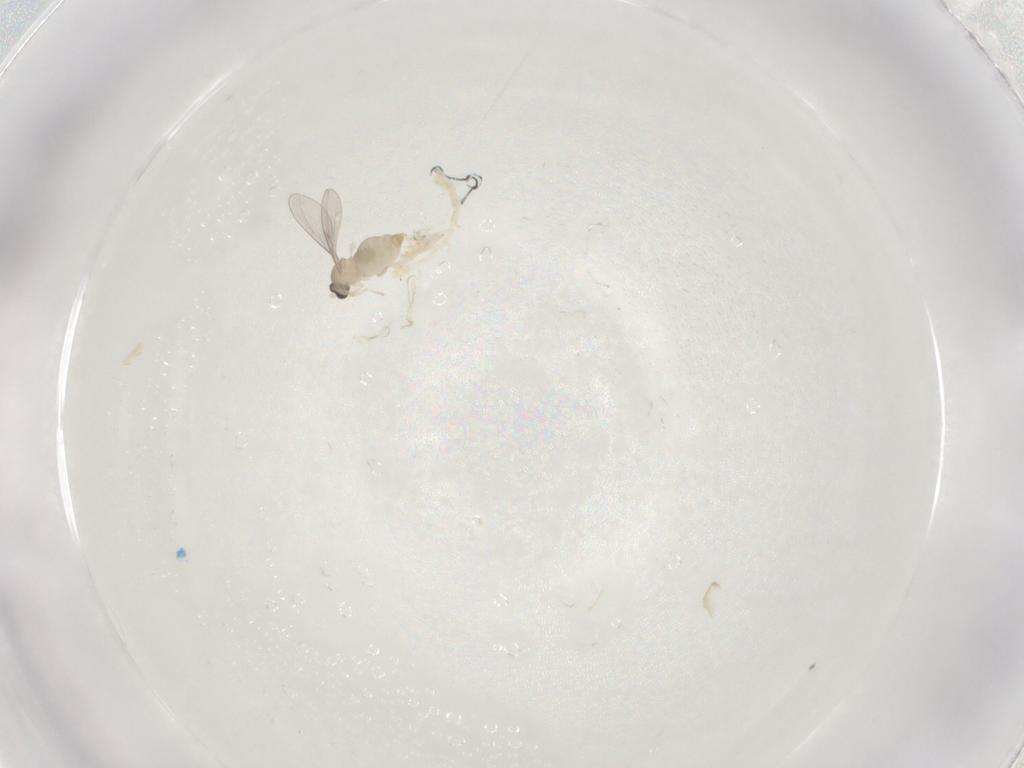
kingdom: Animalia
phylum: Arthropoda
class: Insecta
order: Diptera
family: Cecidomyiidae
